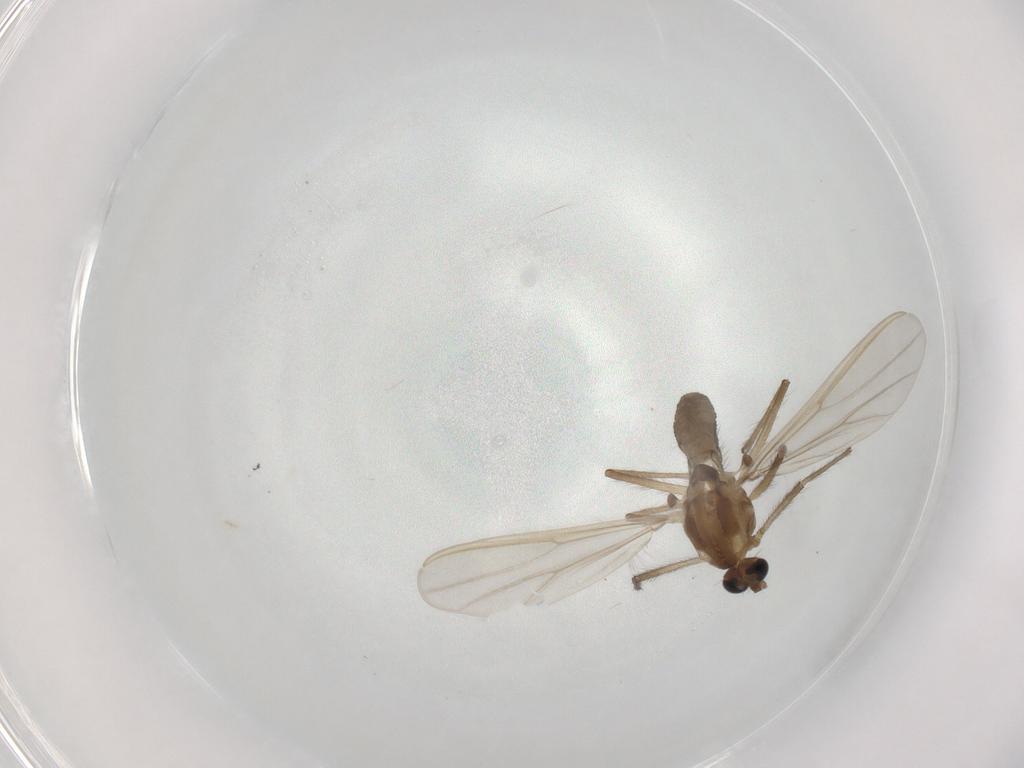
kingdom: Animalia
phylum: Arthropoda
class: Insecta
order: Diptera
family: Chironomidae
